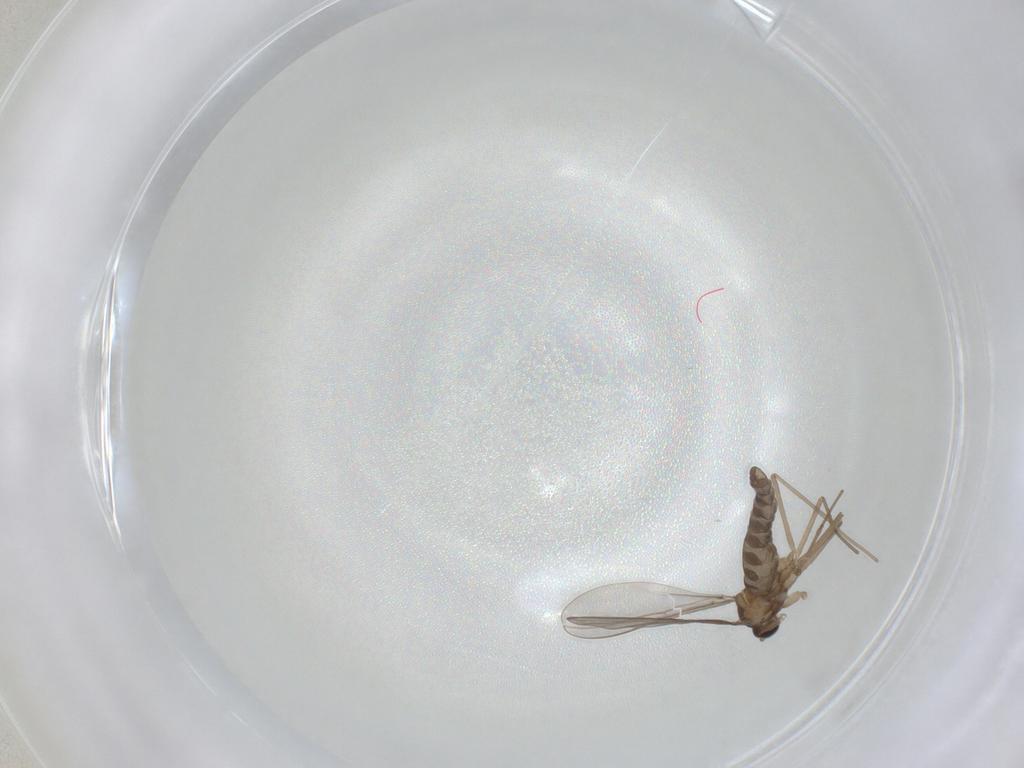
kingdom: Animalia
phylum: Arthropoda
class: Insecta
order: Diptera
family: Cecidomyiidae
